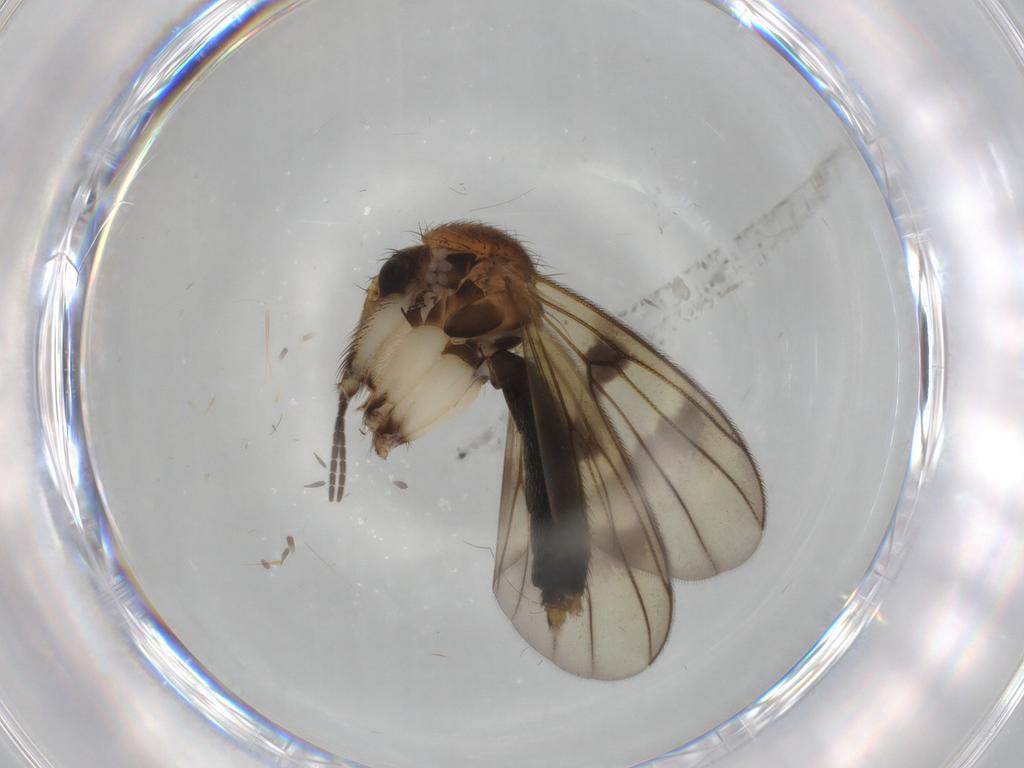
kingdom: Animalia
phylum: Arthropoda
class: Insecta
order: Diptera
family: Mycetophilidae
